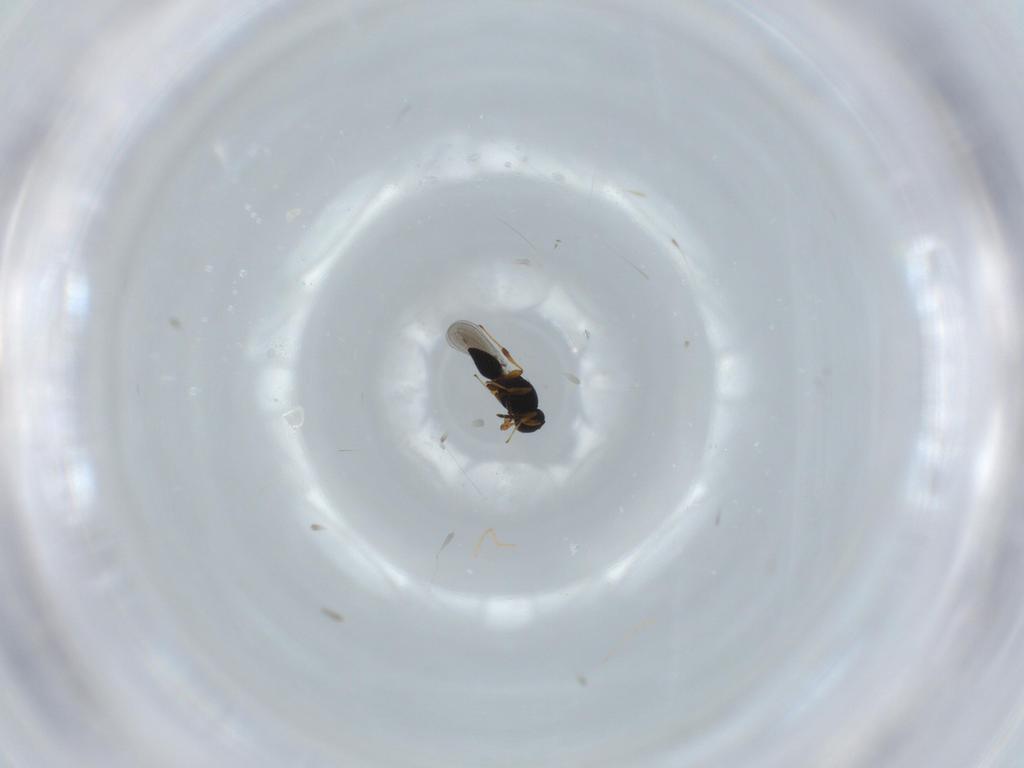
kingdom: Animalia
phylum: Arthropoda
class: Insecta
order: Hymenoptera
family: Platygastridae
